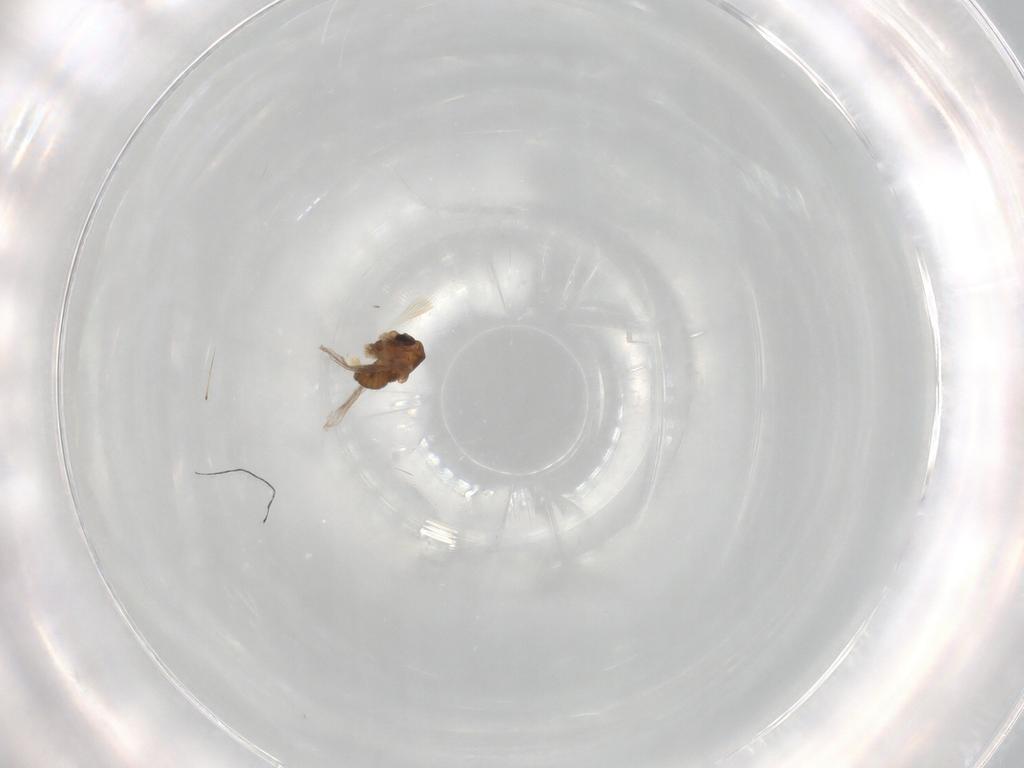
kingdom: Animalia
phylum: Arthropoda
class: Insecta
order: Diptera
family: Chironomidae
